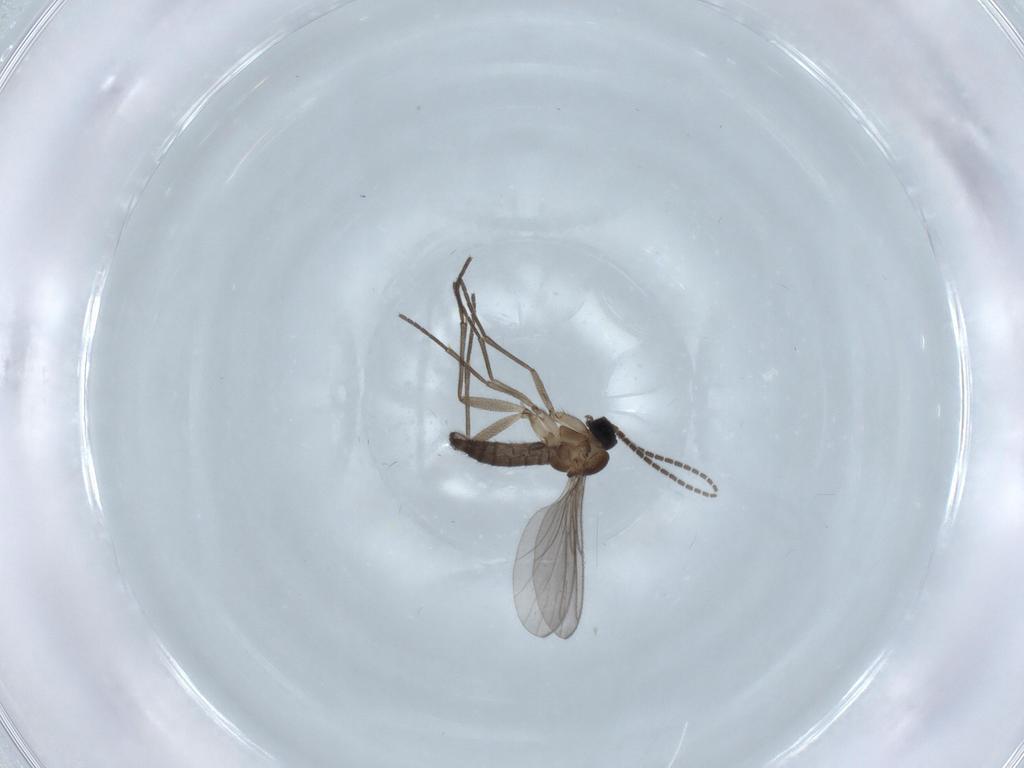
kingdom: Animalia
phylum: Arthropoda
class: Insecta
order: Diptera
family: Sciaridae
